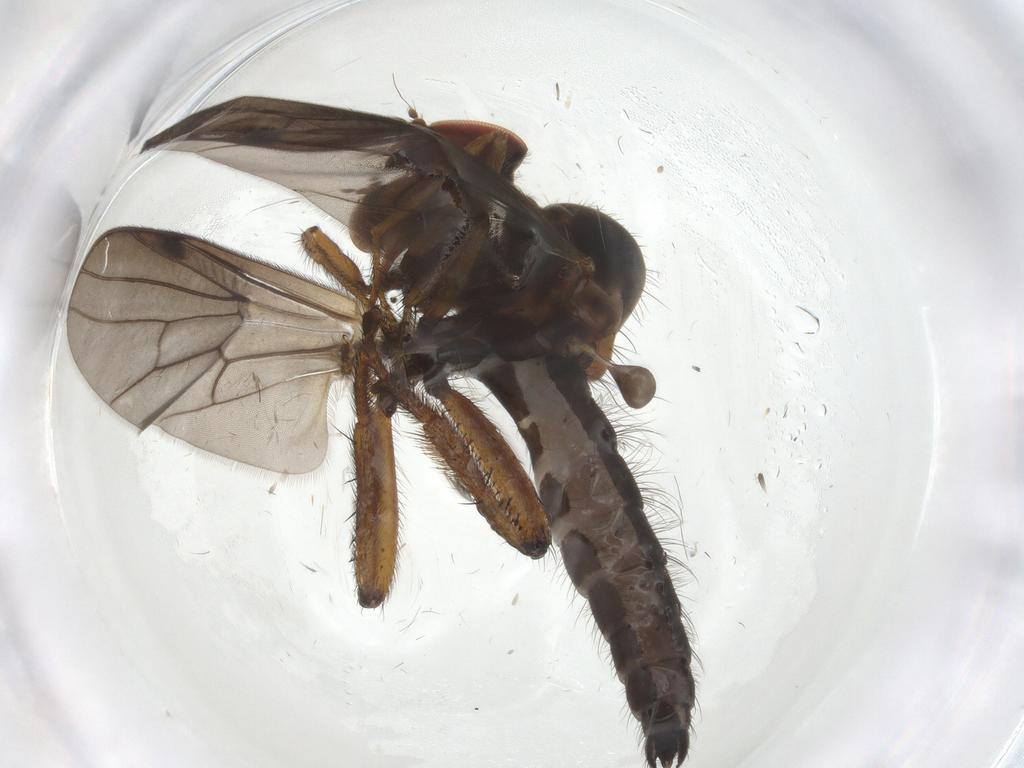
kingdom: Animalia
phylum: Arthropoda
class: Insecta
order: Diptera
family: Hybotidae
